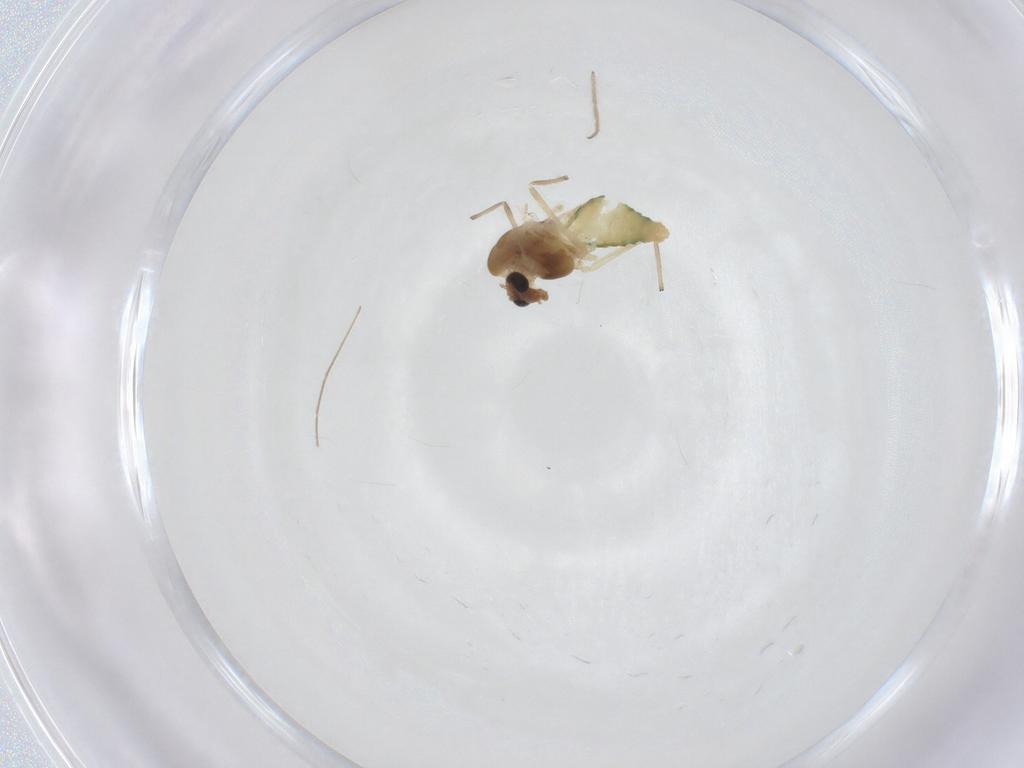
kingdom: Animalia
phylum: Arthropoda
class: Insecta
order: Diptera
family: Chironomidae
